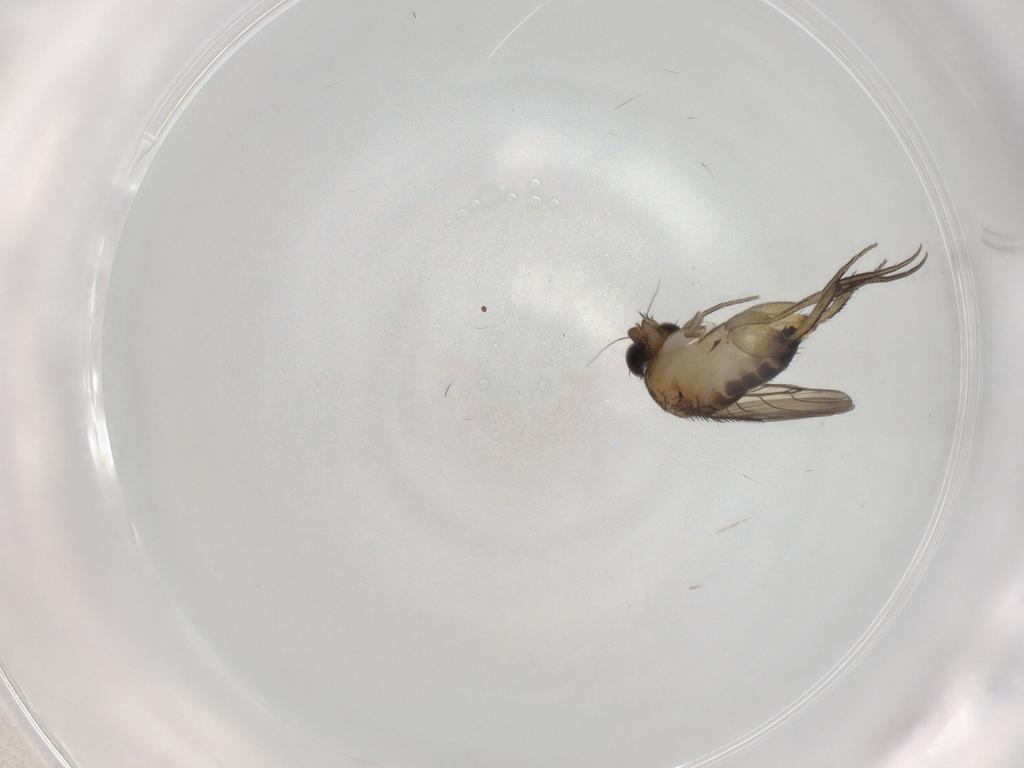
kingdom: Animalia
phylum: Arthropoda
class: Insecta
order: Diptera
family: Phoridae
